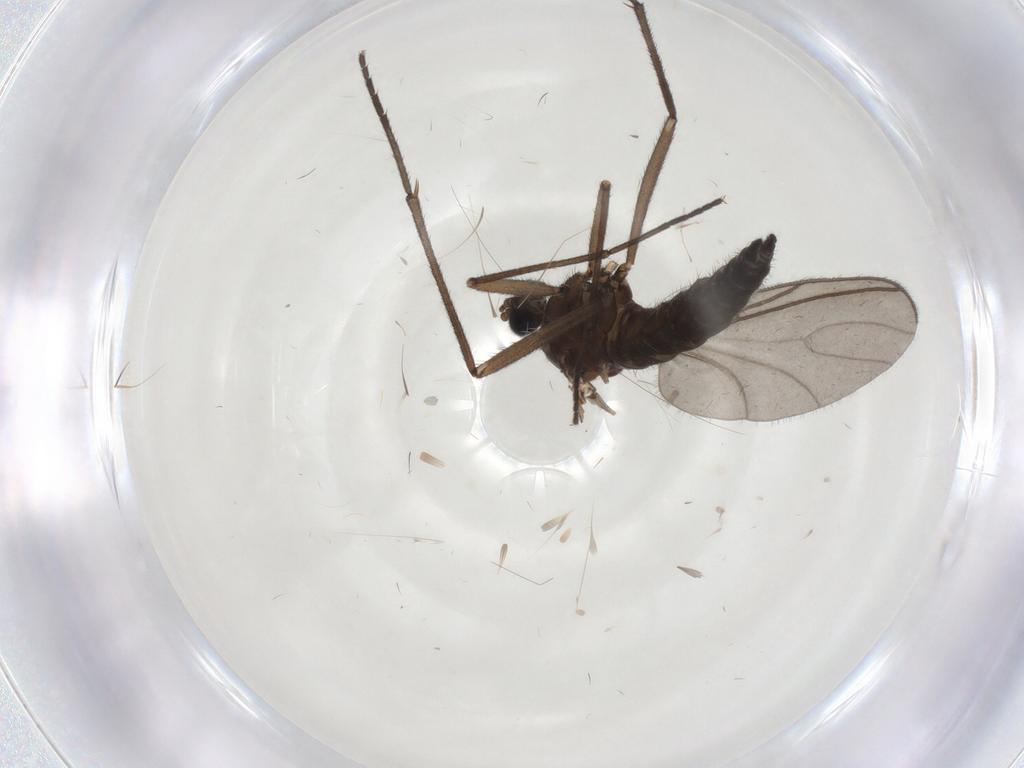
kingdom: Animalia
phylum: Arthropoda
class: Insecta
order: Diptera
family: Sciaridae
